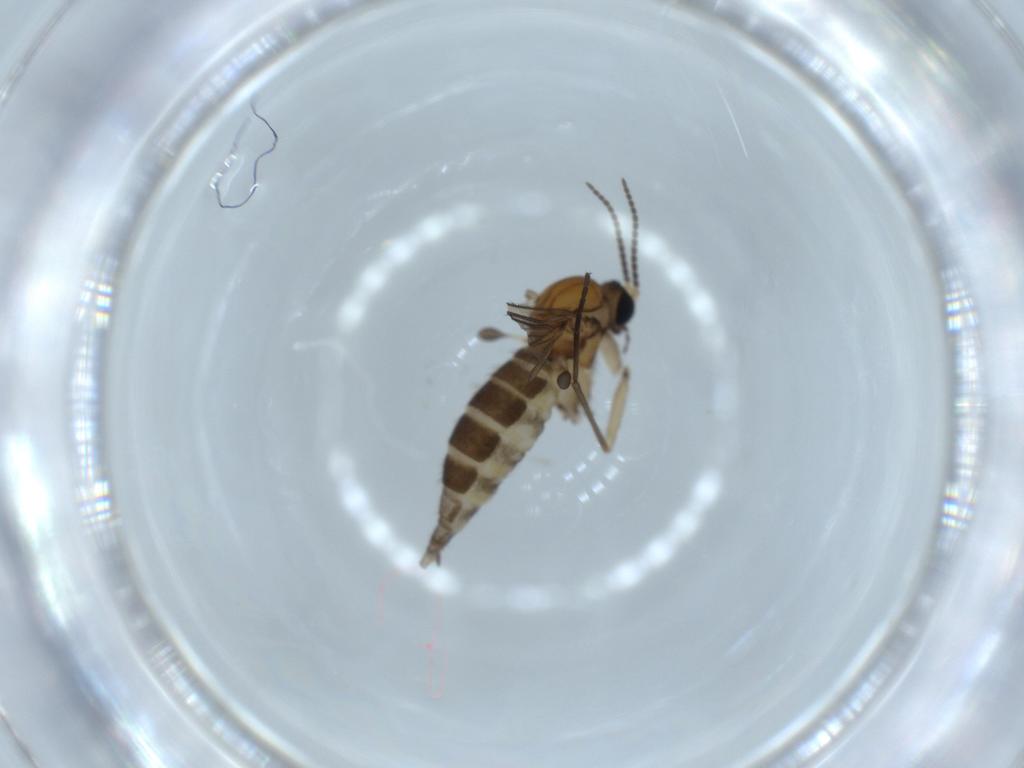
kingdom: Animalia
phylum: Arthropoda
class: Insecta
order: Diptera
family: Sciaridae
